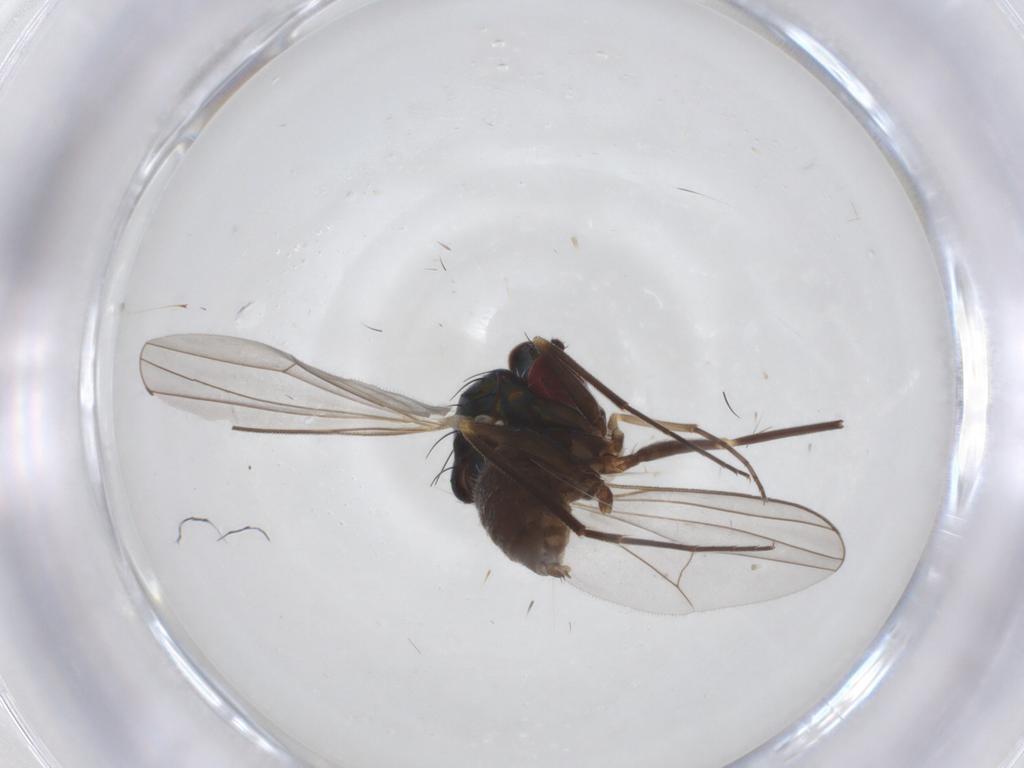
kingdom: Animalia
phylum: Arthropoda
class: Insecta
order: Diptera
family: Dolichopodidae
